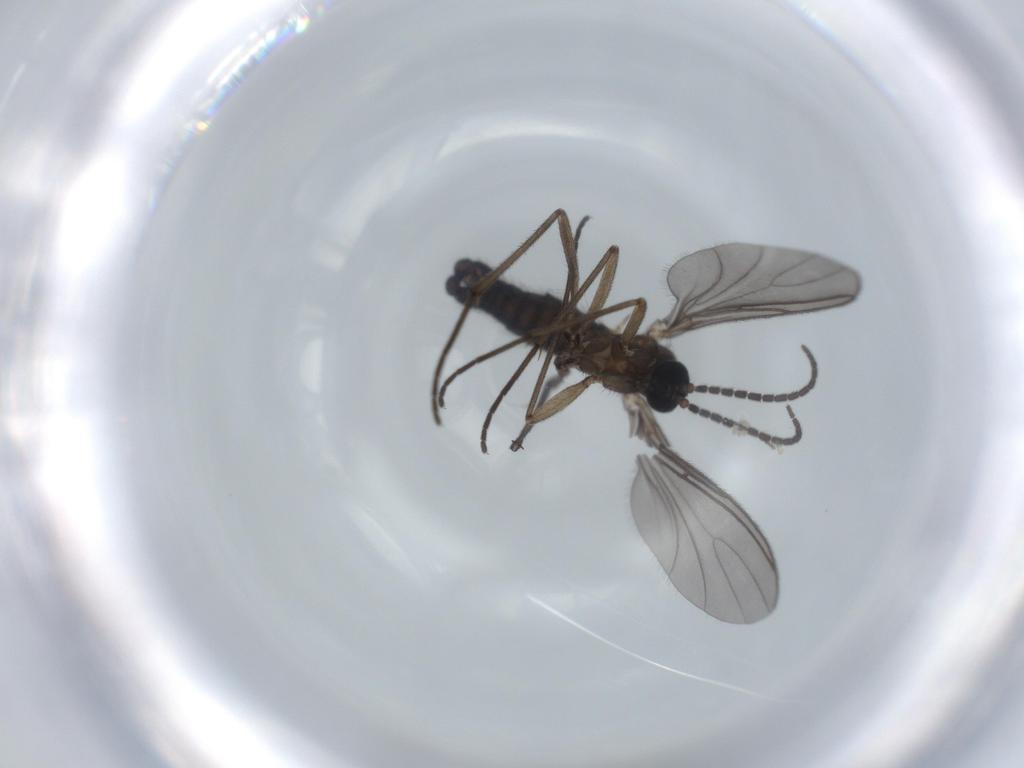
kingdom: Animalia
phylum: Arthropoda
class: Insecta
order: Diptera
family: Sciaridae
